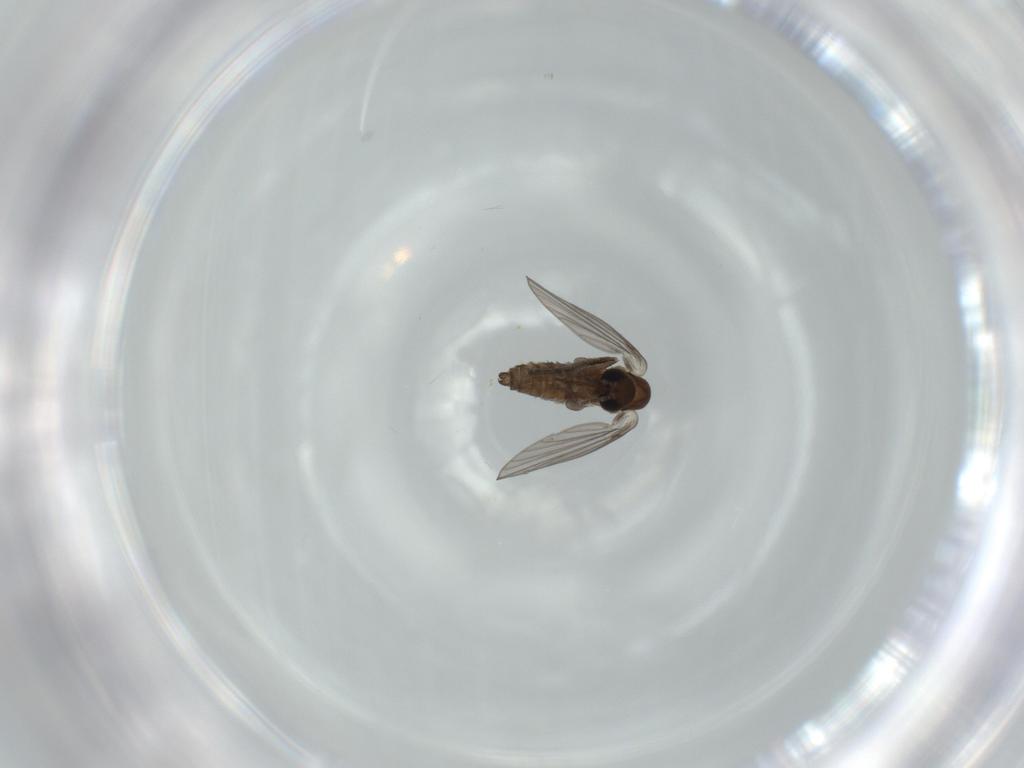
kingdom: Animalia
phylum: Arthropoda
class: Insecta
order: Diptera
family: Psychodidae
